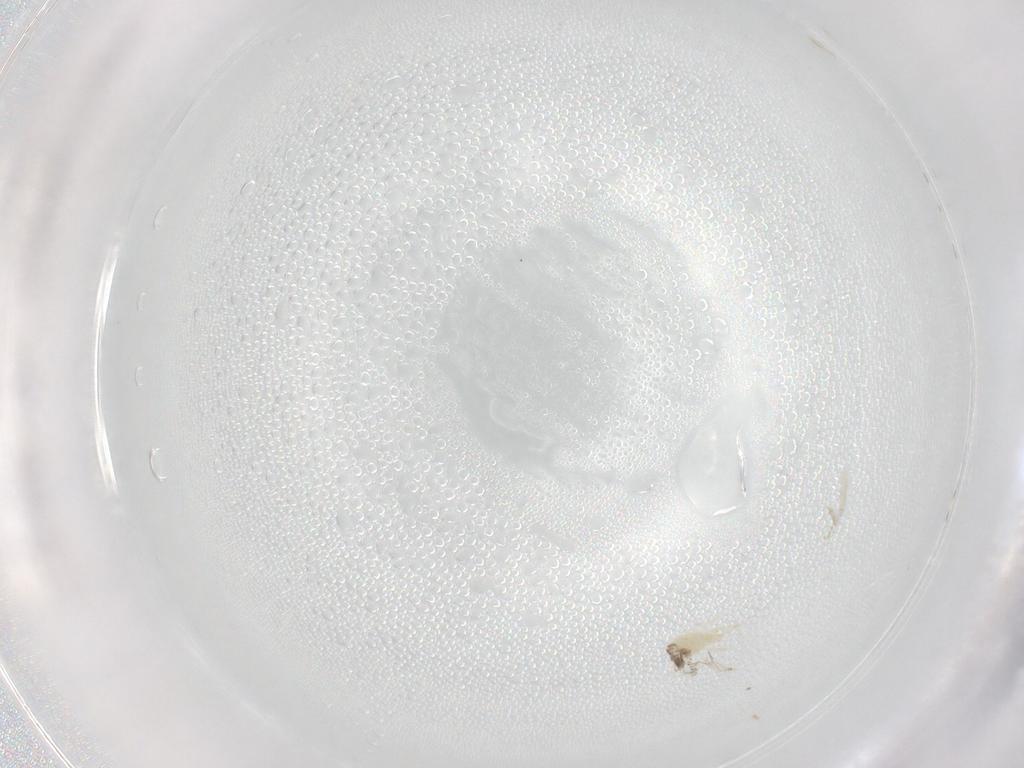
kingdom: Animalia
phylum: Arthropoda
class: Arachnida
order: Mesostigmata
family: Phytoseiidae
